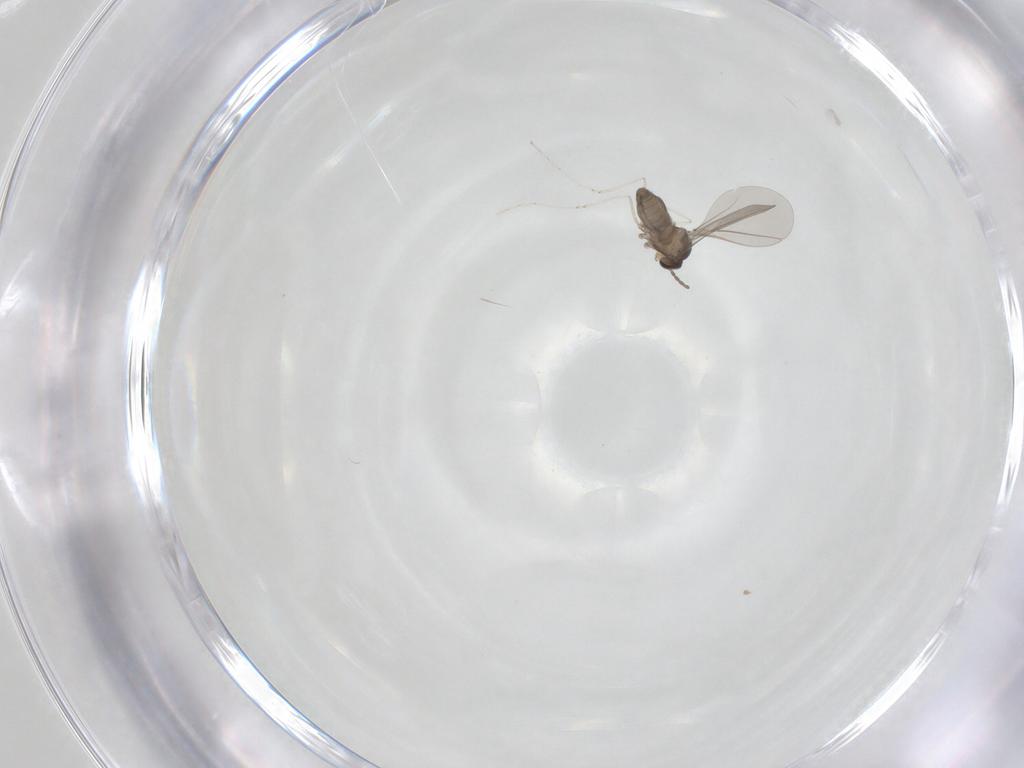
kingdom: Animalia
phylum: Arthropoda
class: Insecta
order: Diptera
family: Cecidomyiidae
